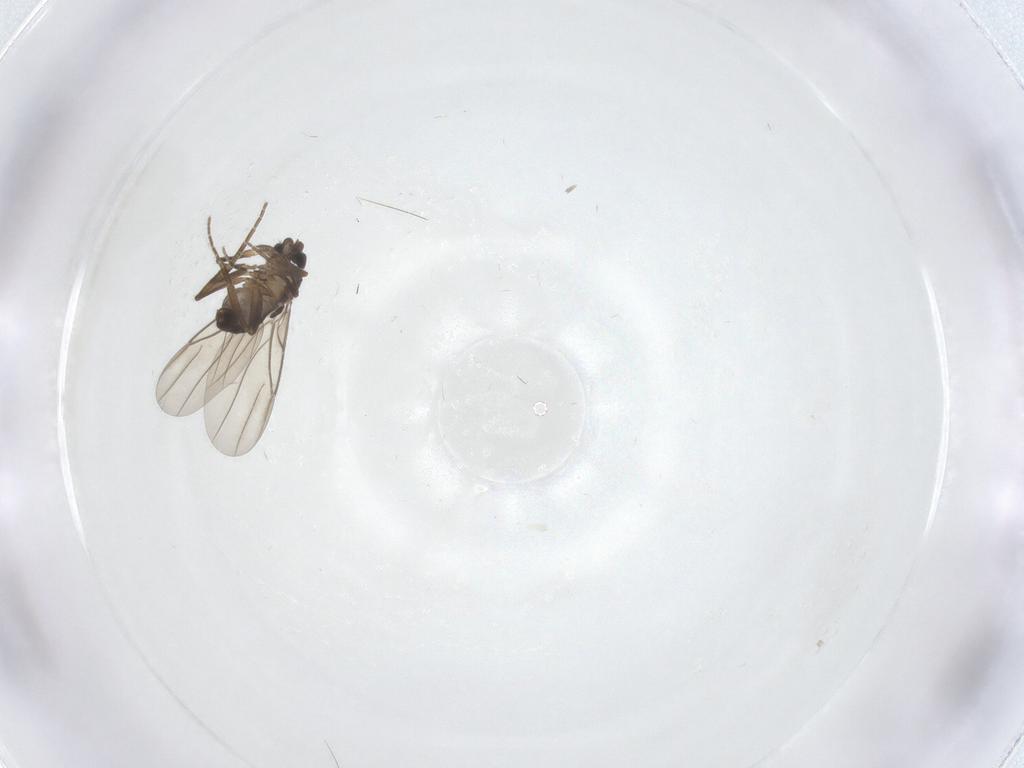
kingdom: Animalia
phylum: Arthropoda
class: Insecta
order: Diptera
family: Phoridae
